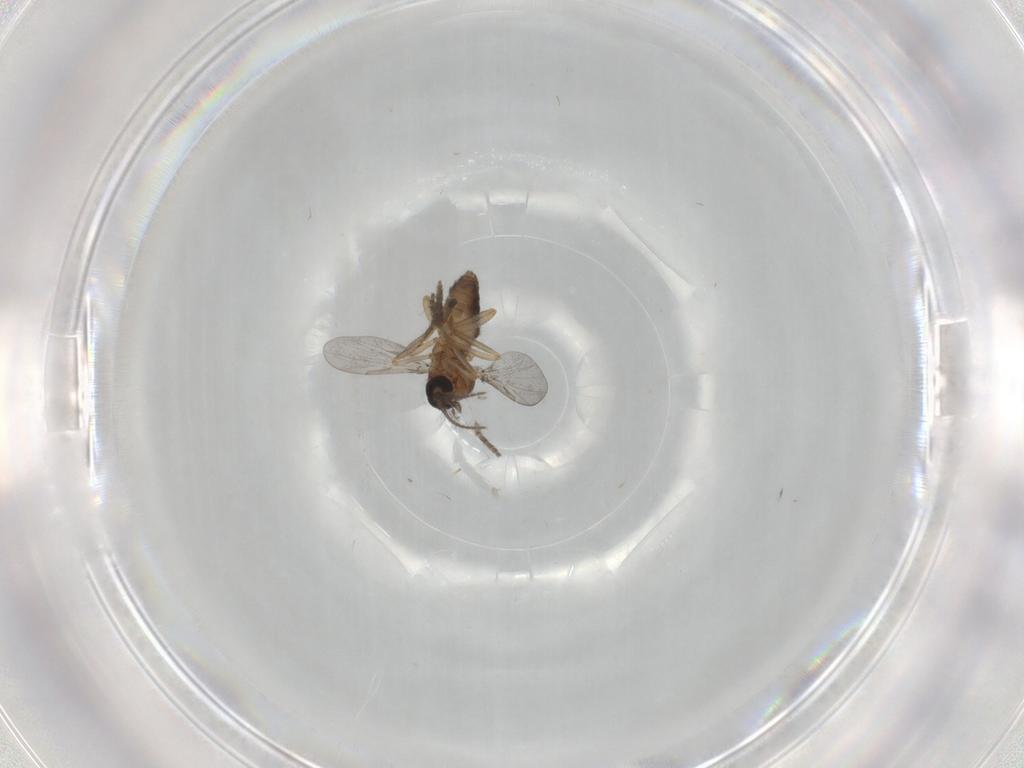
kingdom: Animalia
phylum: Arthropoda
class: Insecta
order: Diptera
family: Ceratopogonidae
